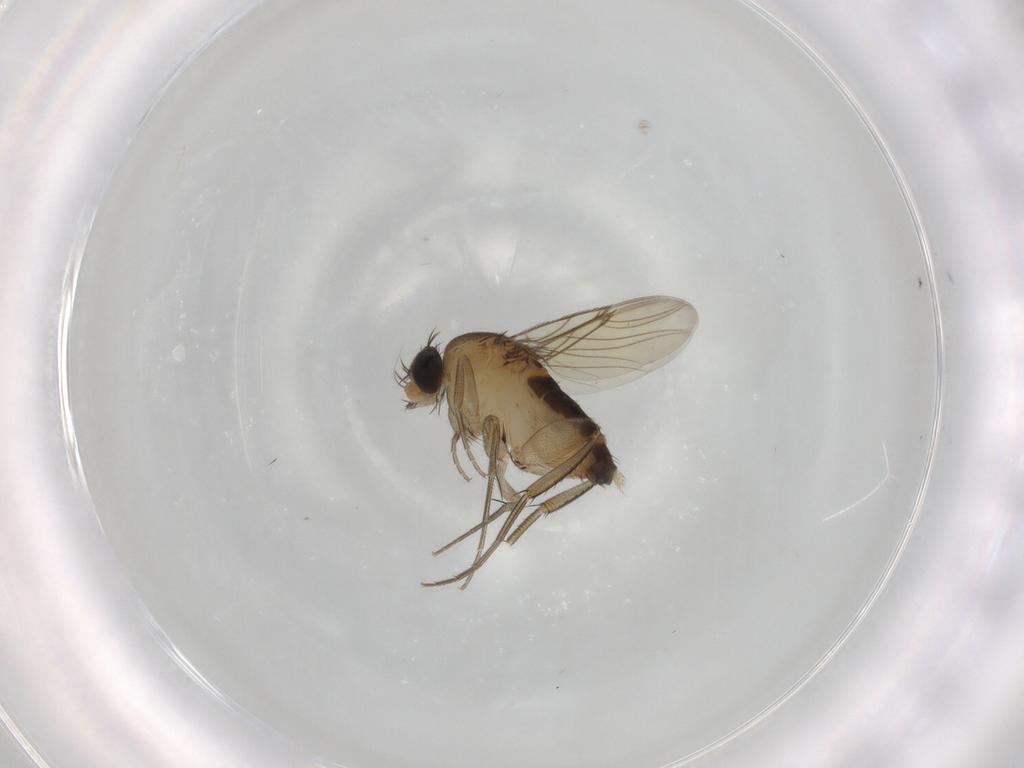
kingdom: Animalia
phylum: Arthropoda
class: Insecta
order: Diptera
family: Phoridae
